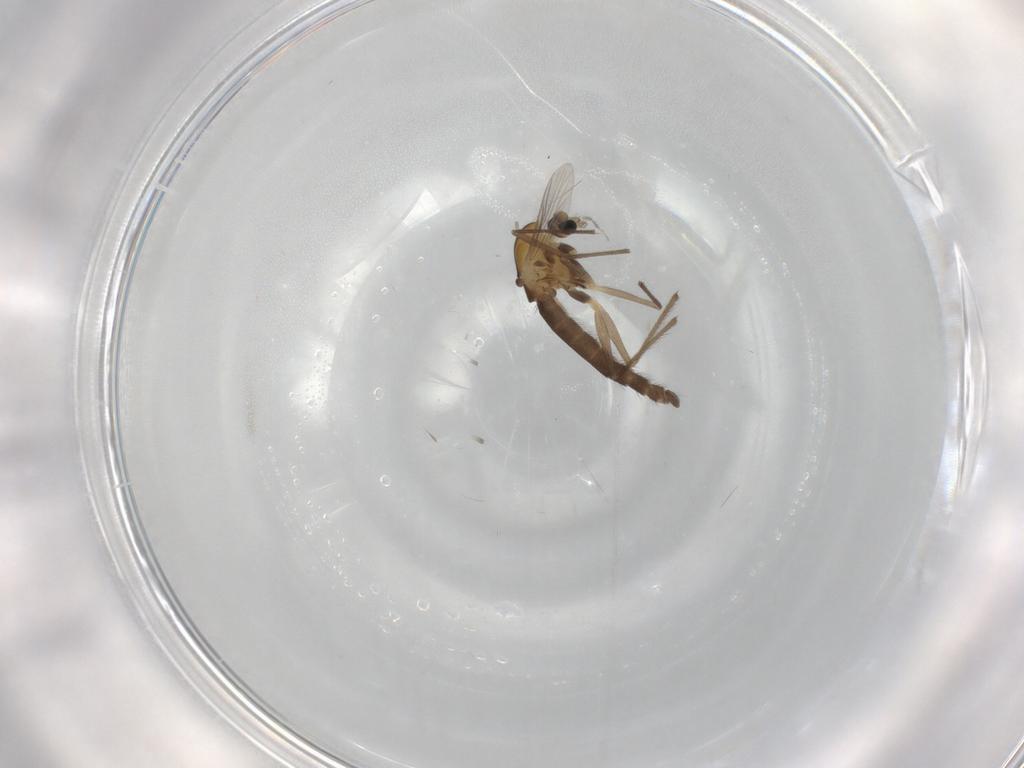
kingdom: Animalia
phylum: Arthropoda
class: Insecta
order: Diptera
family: Chironomidae
